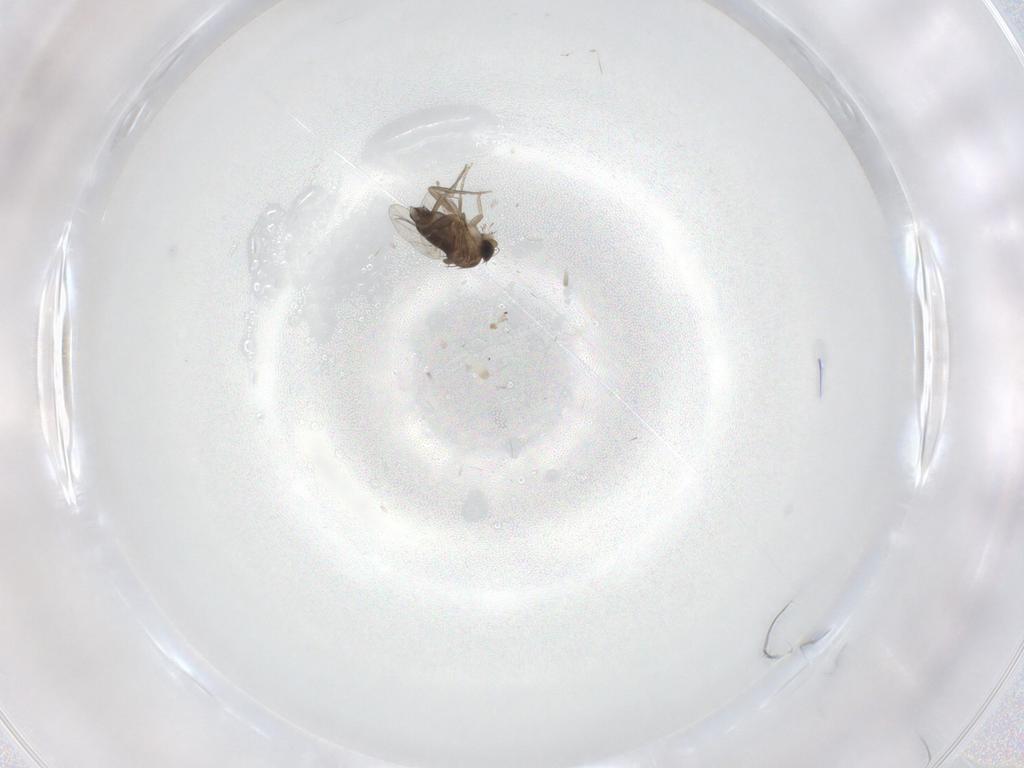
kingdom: Animalia
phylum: Arthropoda
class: Insecta
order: Diptera
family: Phoridae
